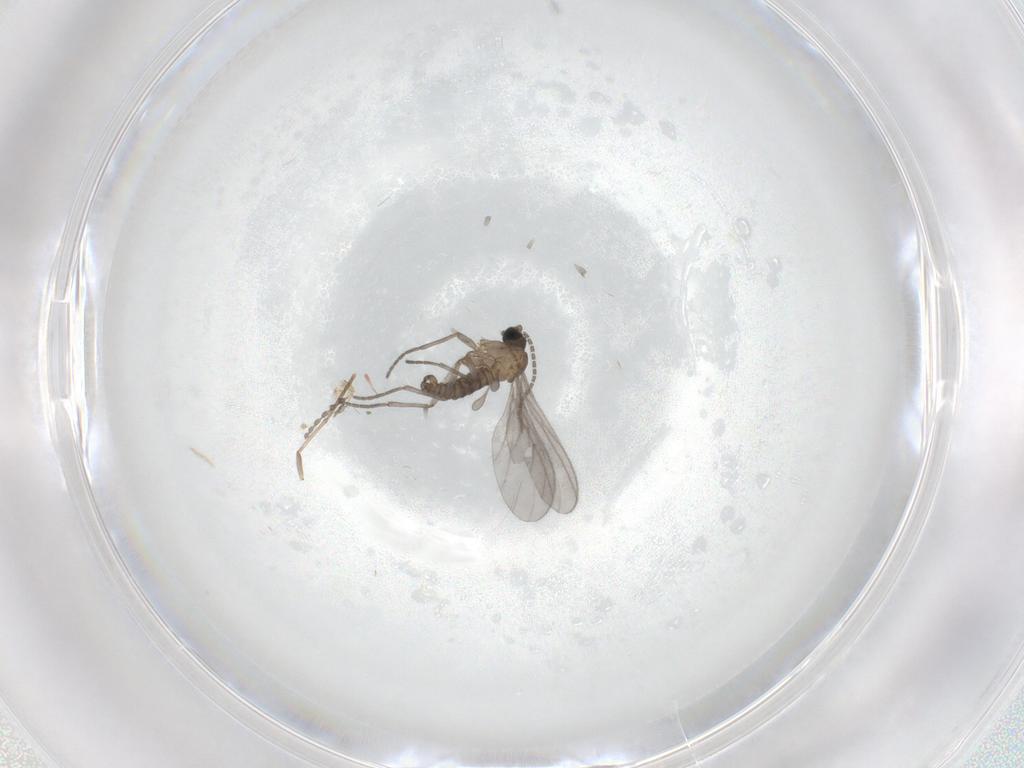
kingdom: Animalia
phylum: Arthropoda
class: Insecta
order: Diptera
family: Sciaridae
